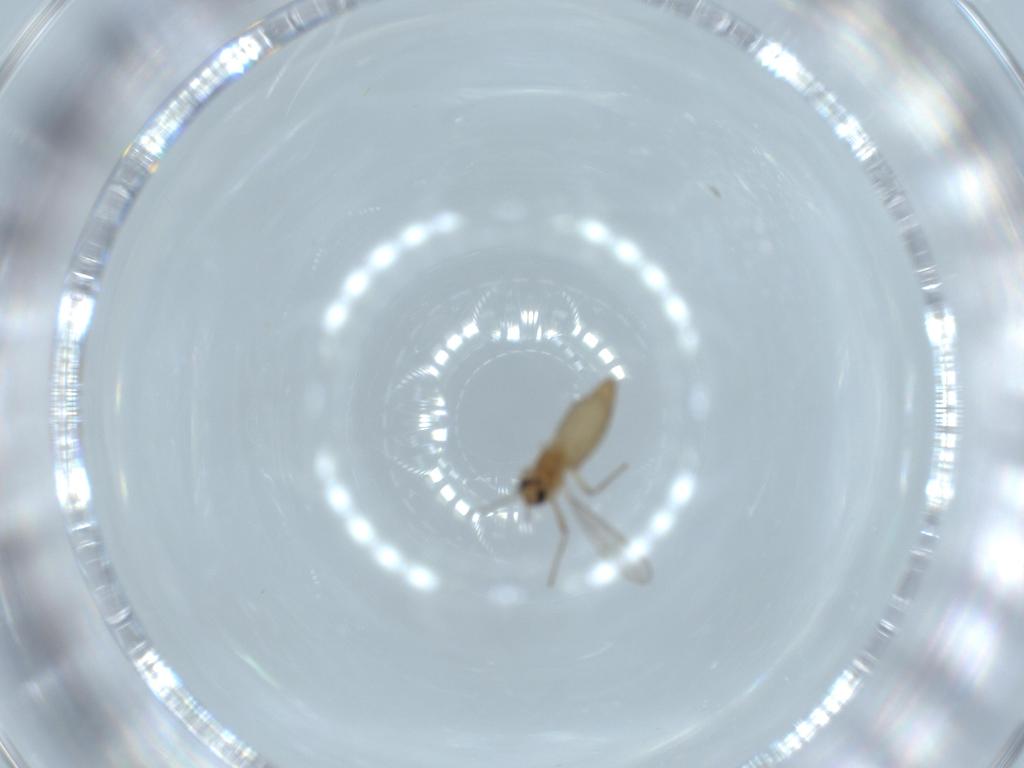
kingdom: Animalia
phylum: Arthropoda
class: Insecta
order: Diptera
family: Chironomidae
